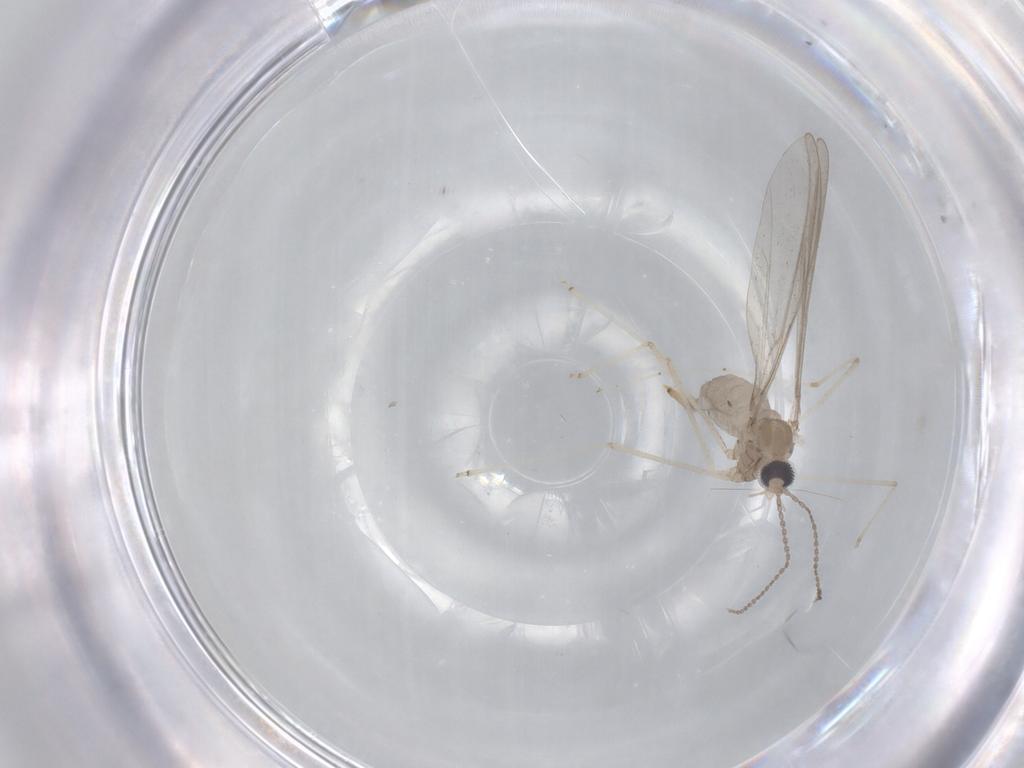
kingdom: Animalia
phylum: Arthropoda
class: Insecta
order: Diptera
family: Cecidomyiidae
